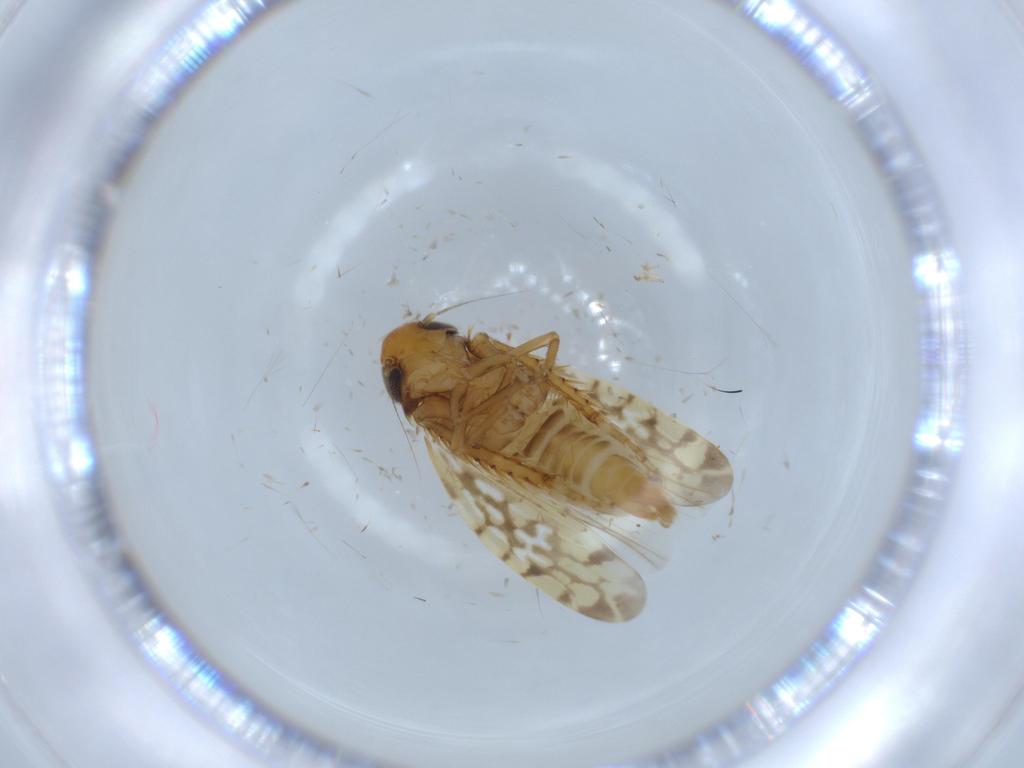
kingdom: Animalia
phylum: Arthropoda
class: Insecta
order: Hemiptera
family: Cicadellidae
